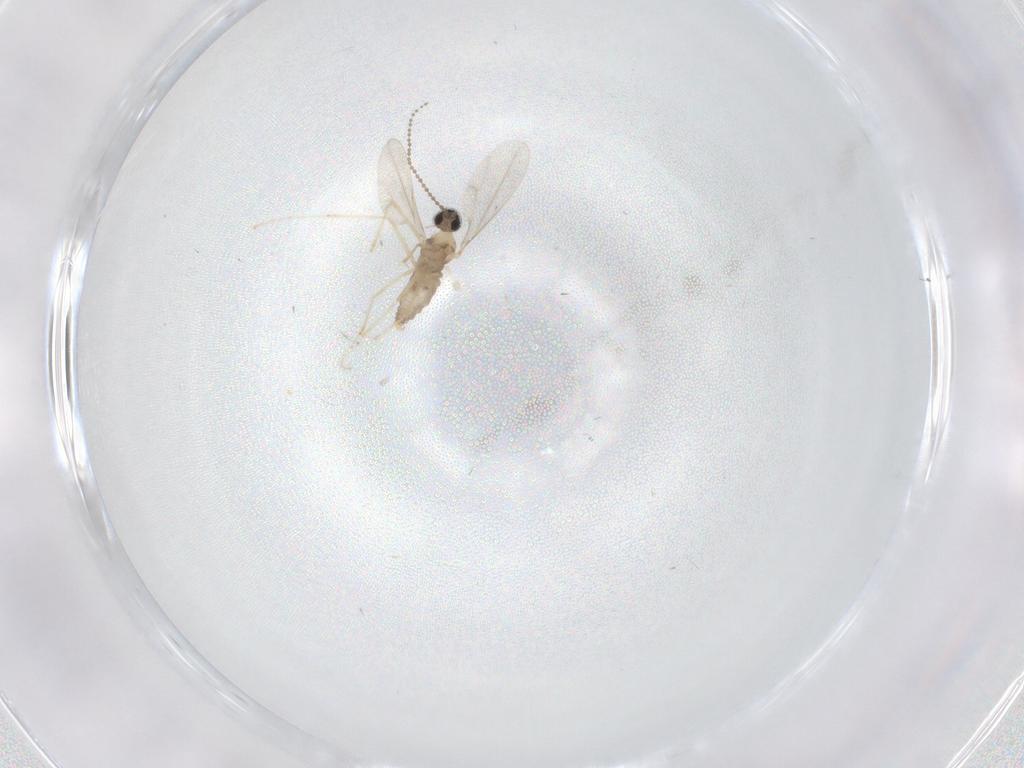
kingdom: Animalia
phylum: Arthropoda
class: Insecta
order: Diptera
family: Cecidomyiidae
